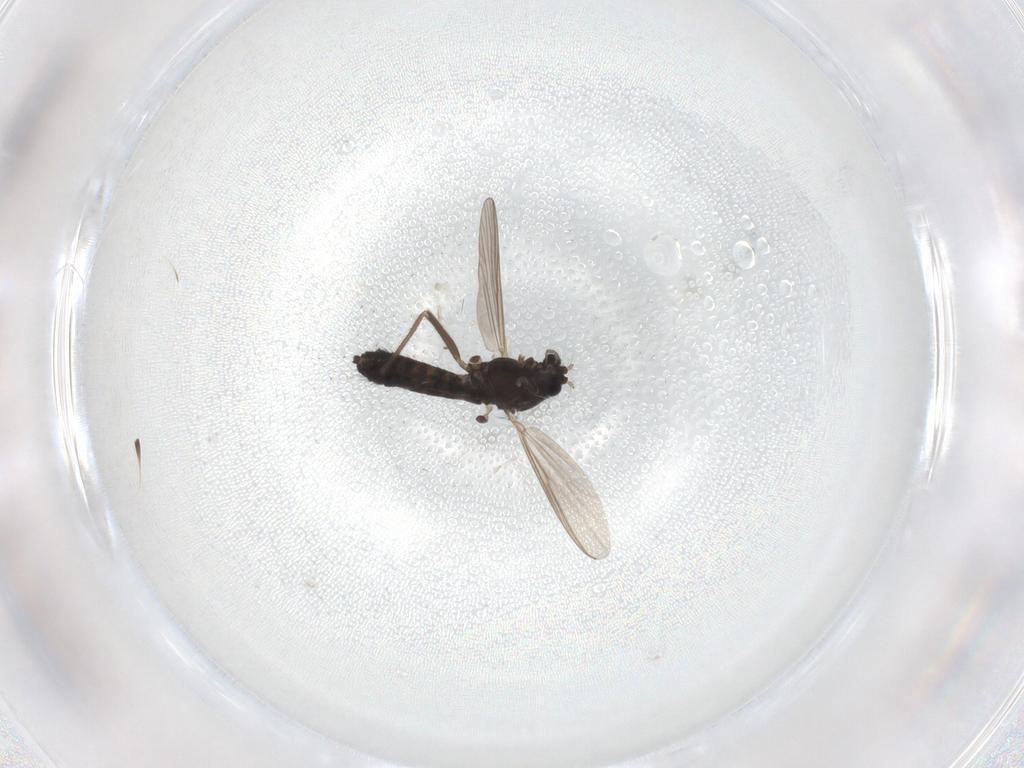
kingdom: Animalia
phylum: Arthropoda
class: Insecta
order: Diptera
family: Chironomidae
